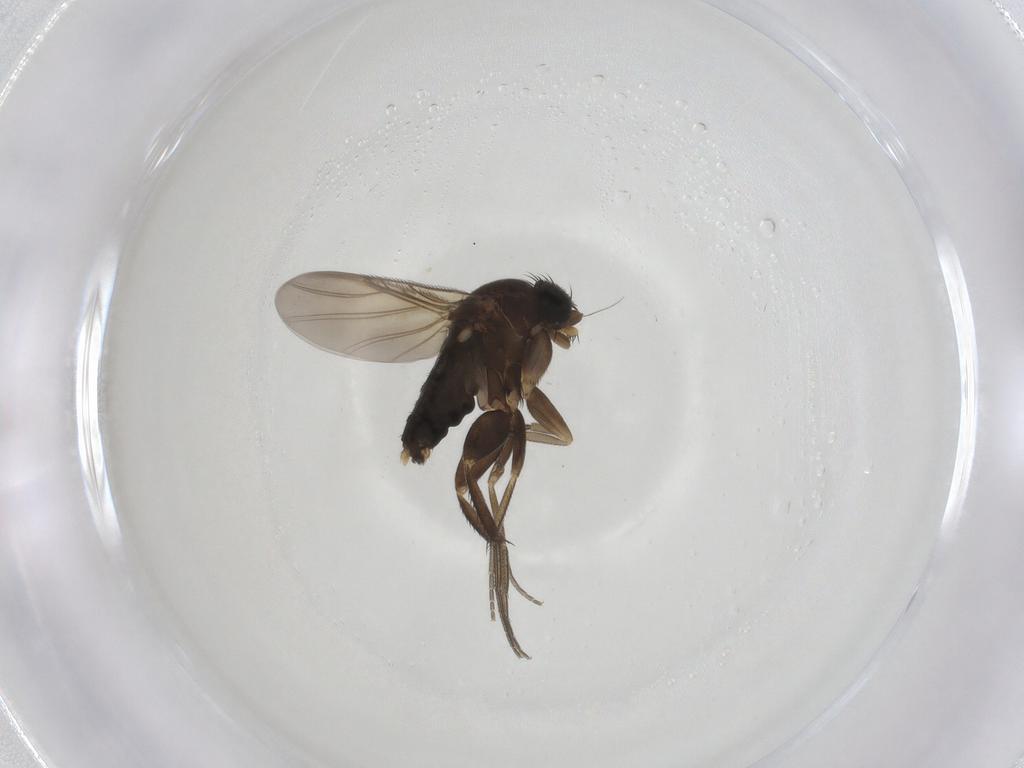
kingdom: Animalia
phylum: Arthropoda
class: Insecta
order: Diptera
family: Phoridae
